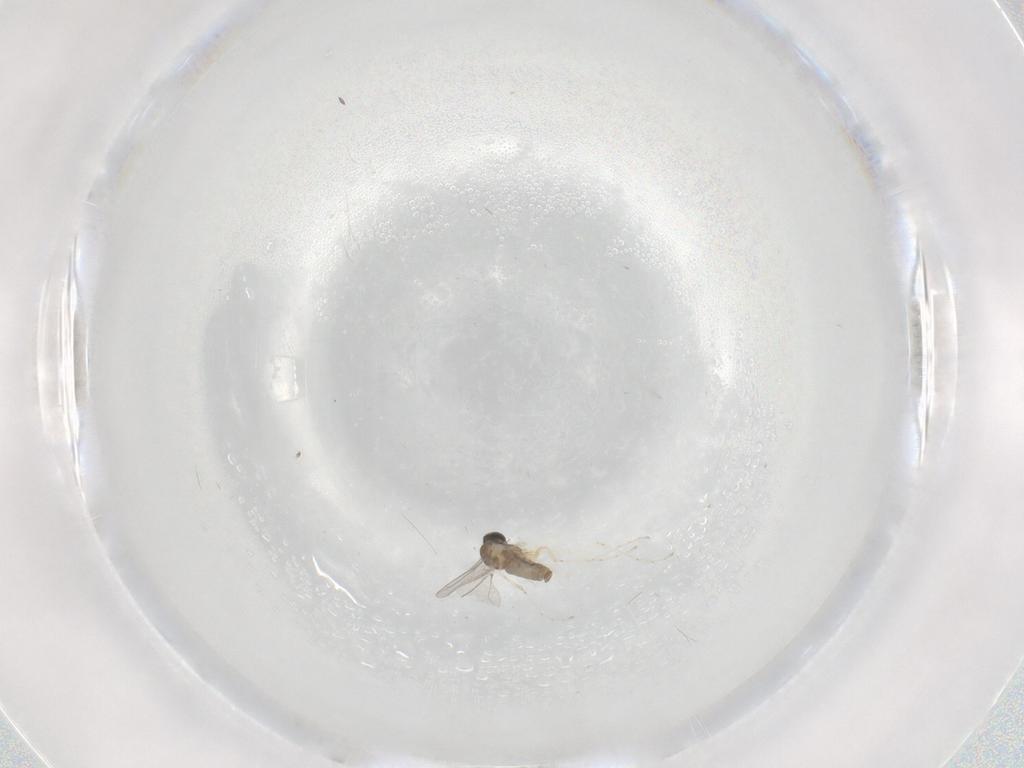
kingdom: Animalia
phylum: Arthropoda
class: Insecta
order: Diptera
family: Cecidomyiidae
